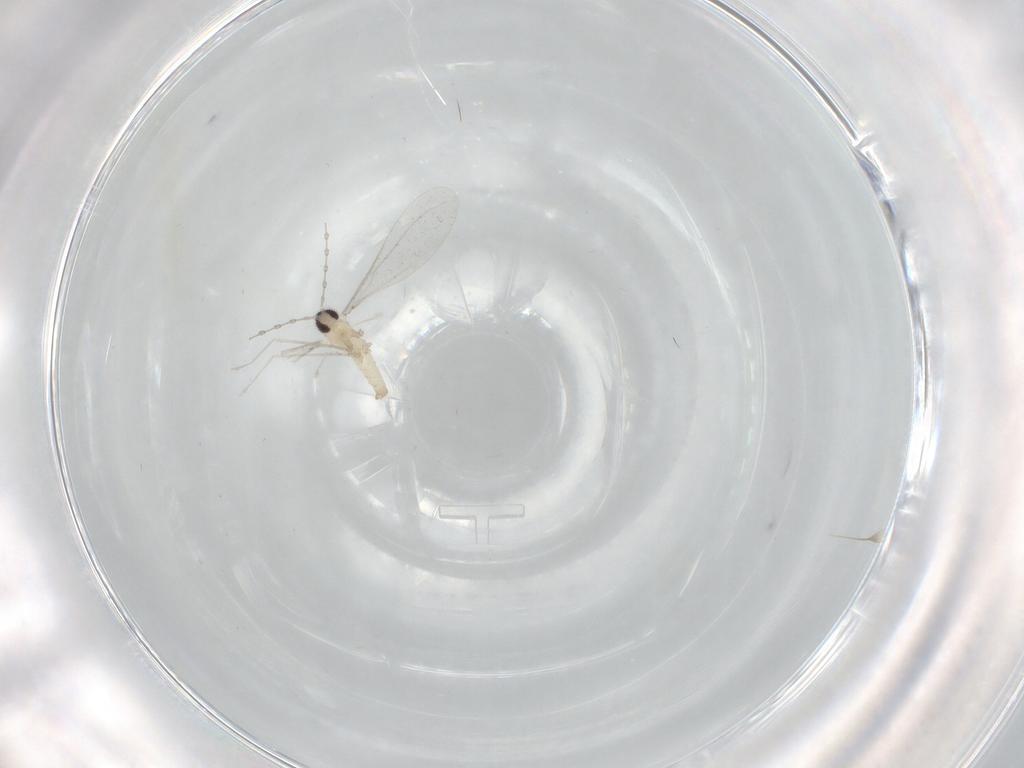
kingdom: Animalia
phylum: Arthropoda
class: Insecta
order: Diptera
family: Cecidomyiidae
